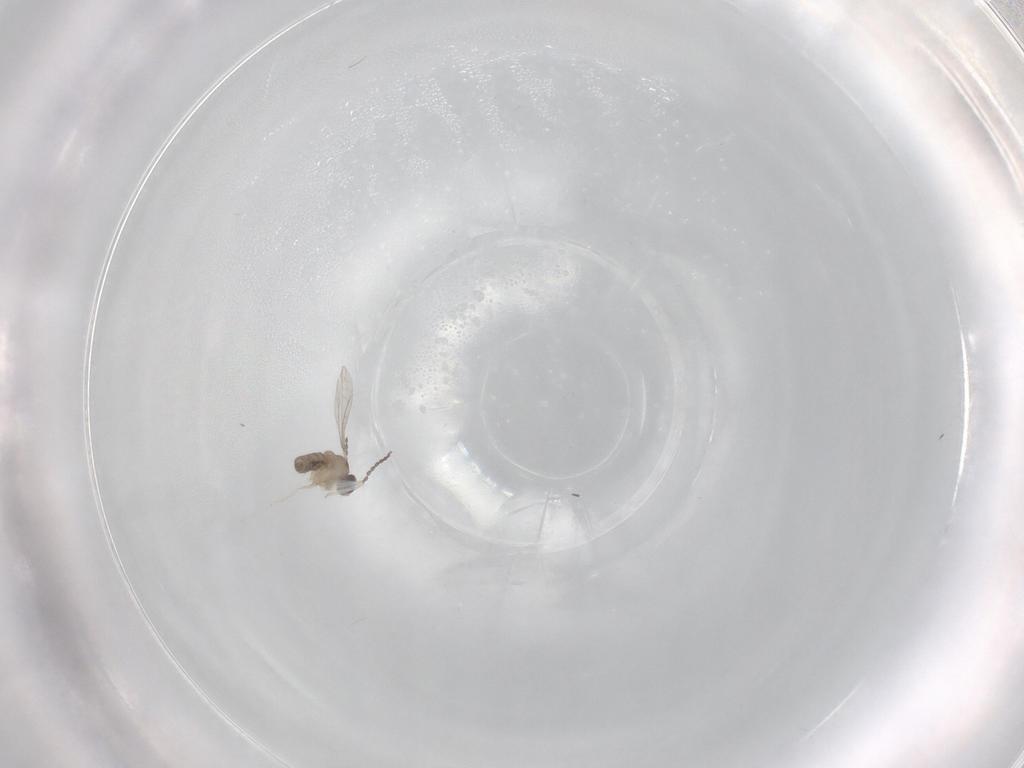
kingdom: Animalia
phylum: Arthropoda
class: Insecta
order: Diptera
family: Cecidomyiidae
